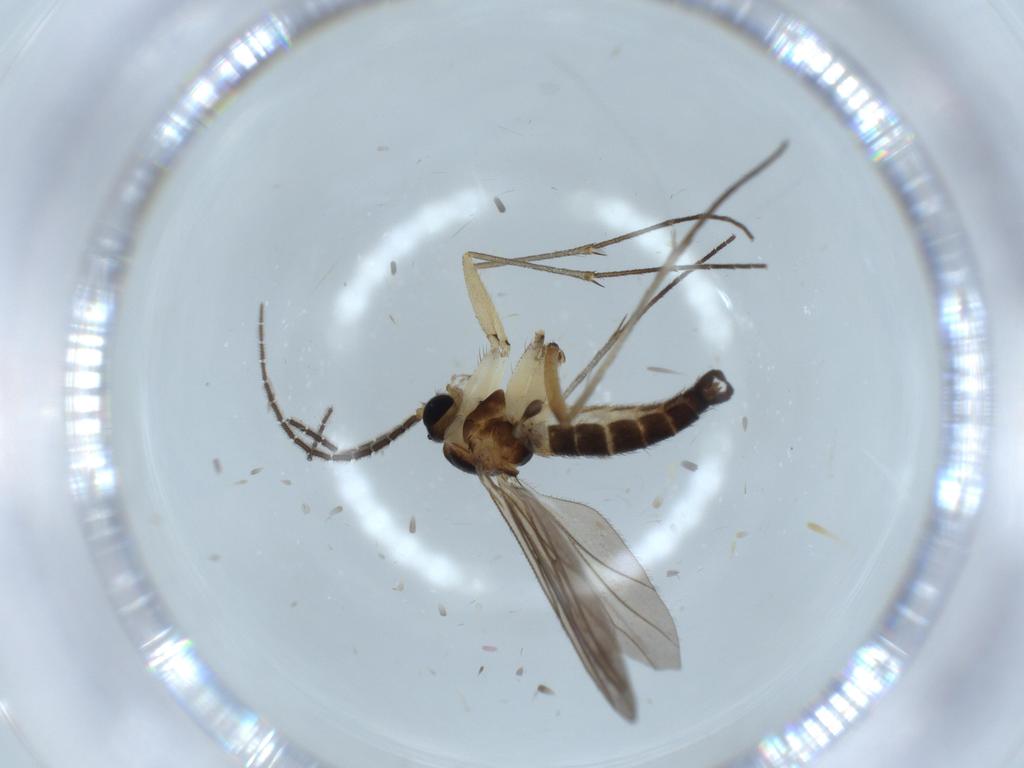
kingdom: Animalia
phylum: Arthropoda
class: Insecta
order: Diptera
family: Sciaridae
